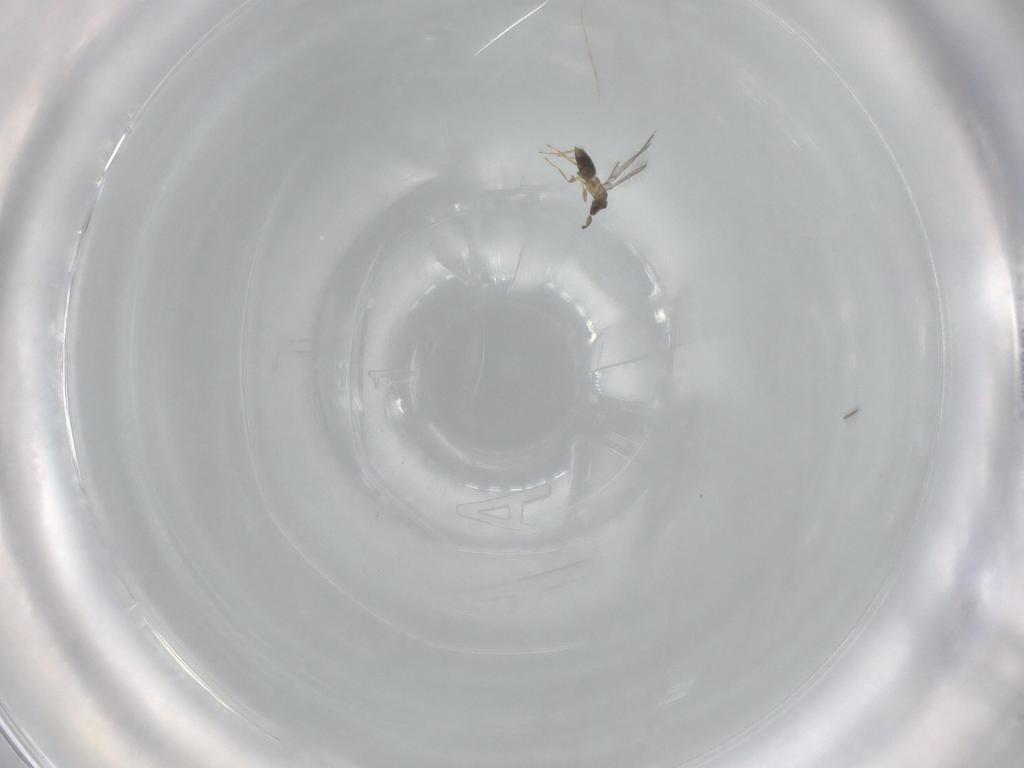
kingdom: Animalia
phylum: Arthropoda
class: Insecta
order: Hymenoptera
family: Mymaridae
